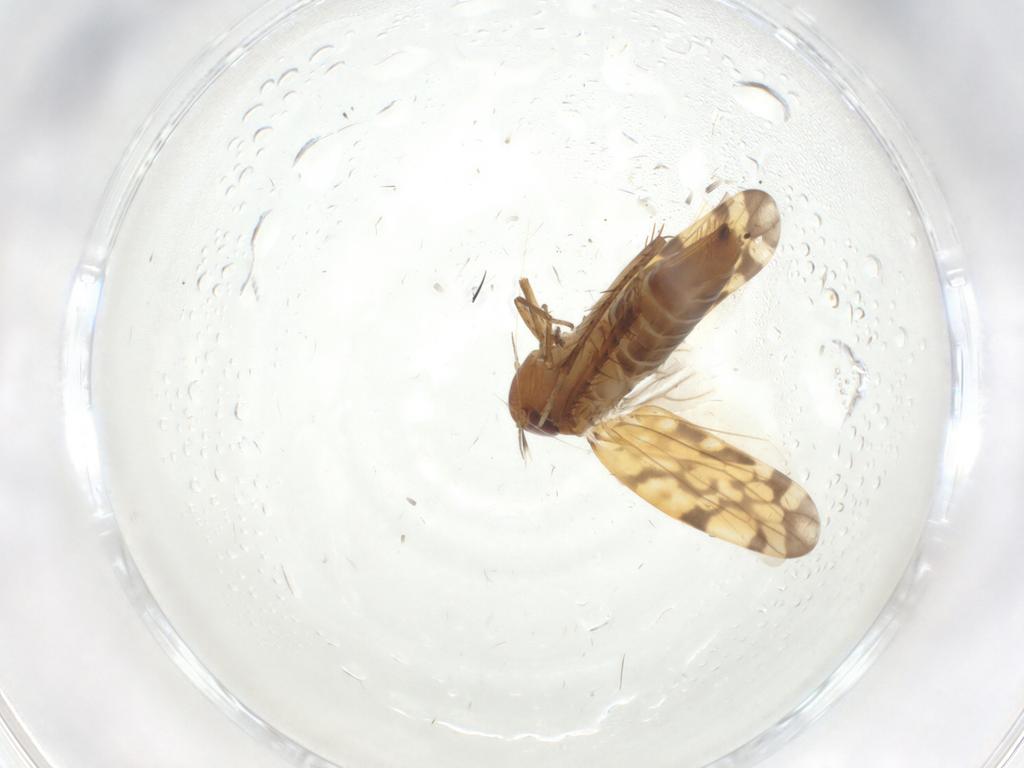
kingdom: Animalia
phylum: Arthropoda
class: Insecta
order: Hemiptera
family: Cicadellidae
